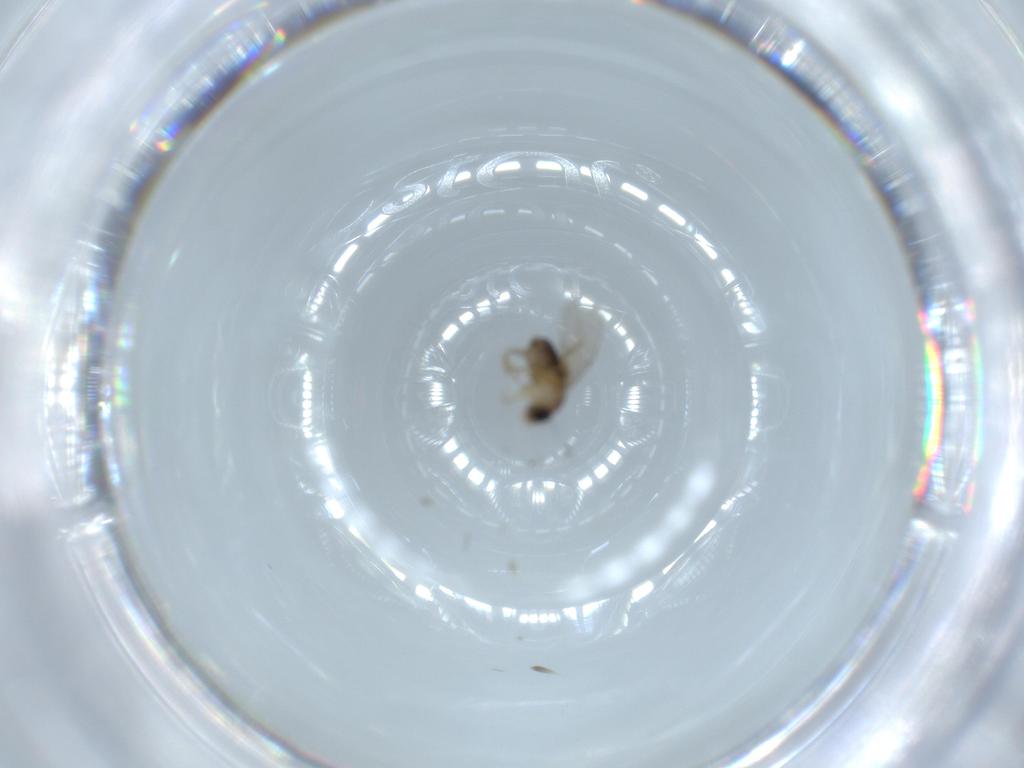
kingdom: Animalia
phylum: Arthropoda
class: Insecta
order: Diptera
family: Phoridae
